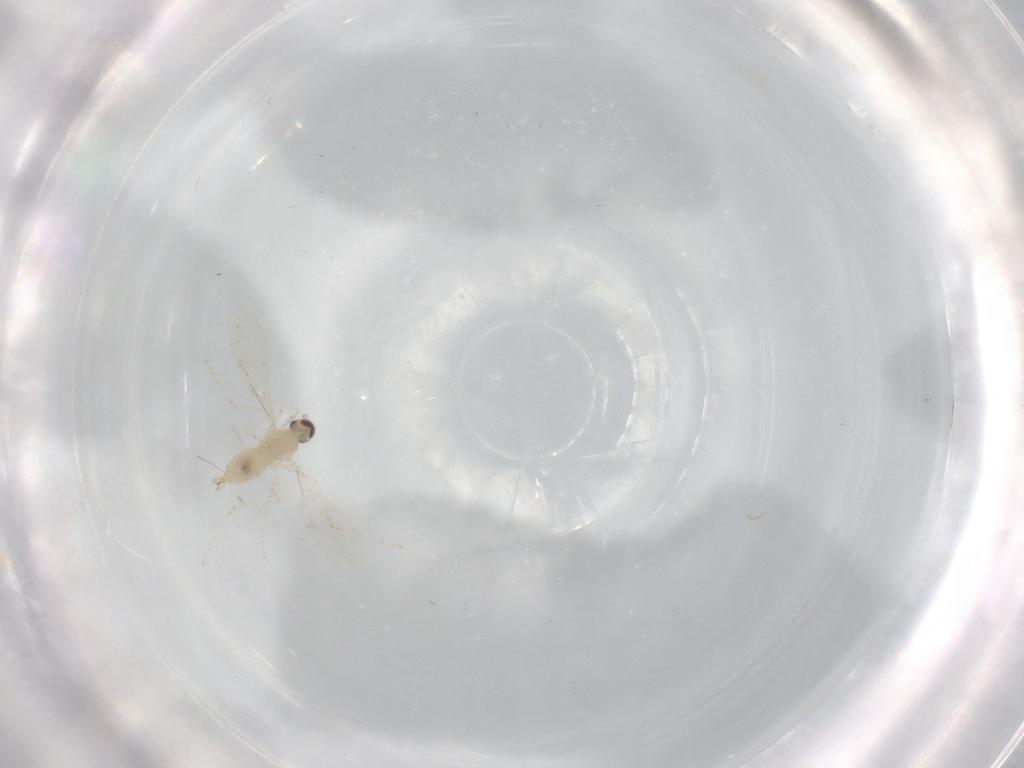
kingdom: Animalia
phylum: Arthropoda
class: Insecta
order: Diptera
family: Cecidomyiidae
